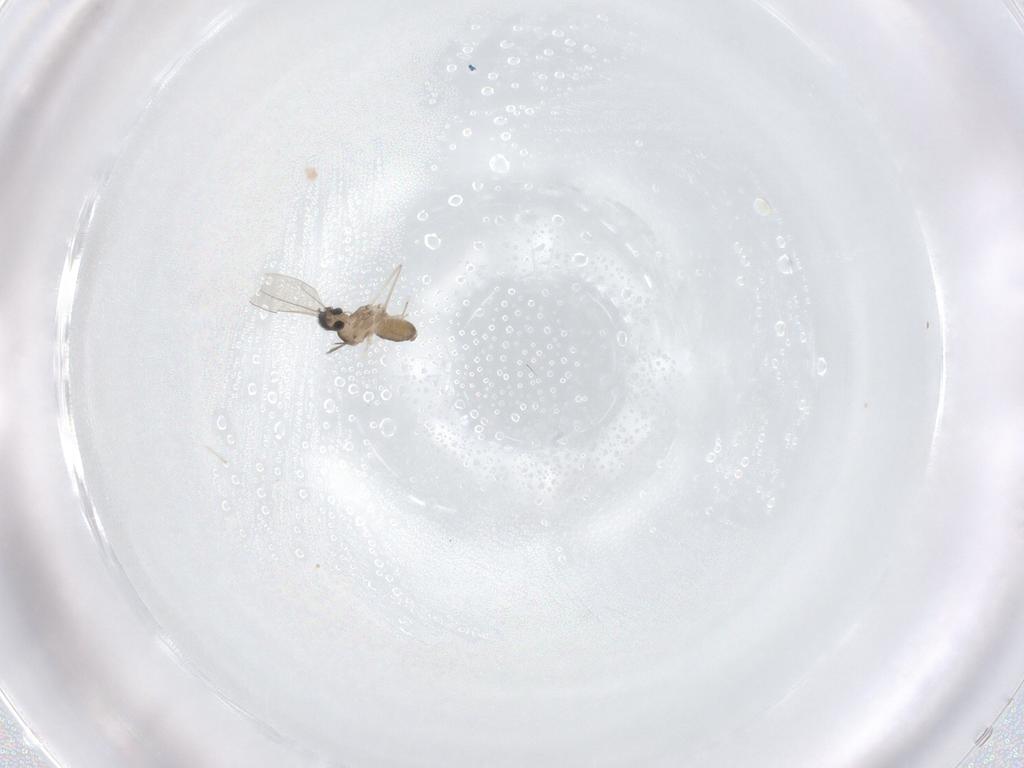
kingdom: Animalia
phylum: Arthropoda
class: Insecta
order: Diptera
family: Cecidomyiidae
